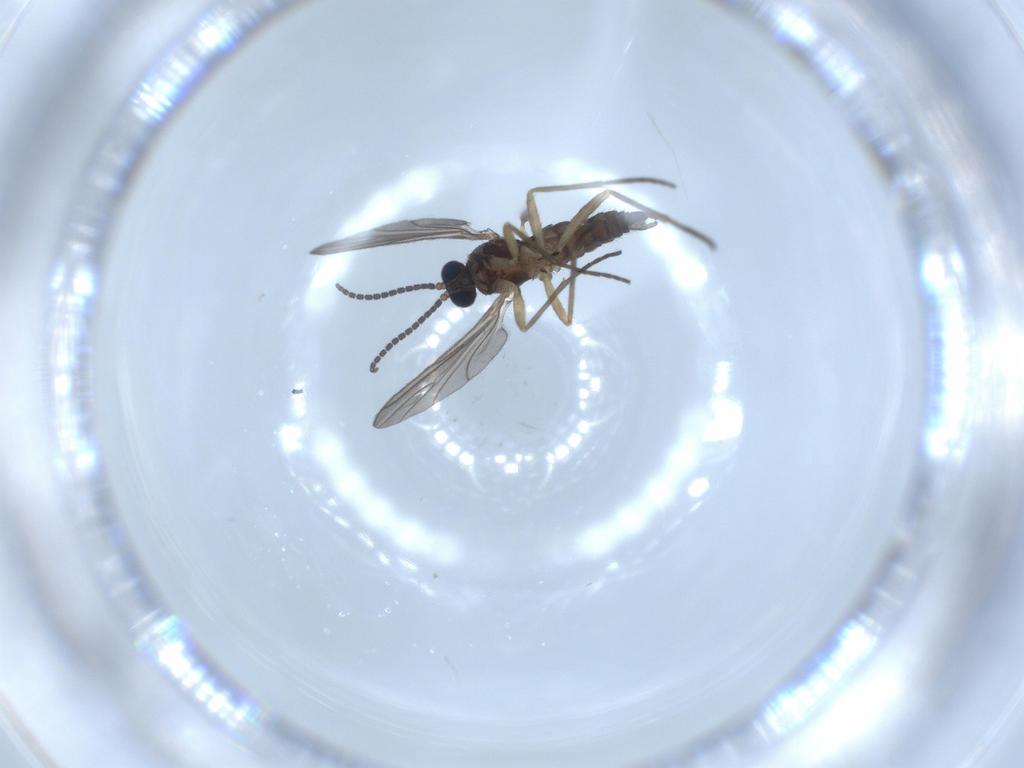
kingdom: Animalia
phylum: Arthropoda
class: Insecta
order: Diptera
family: Sciaridae
